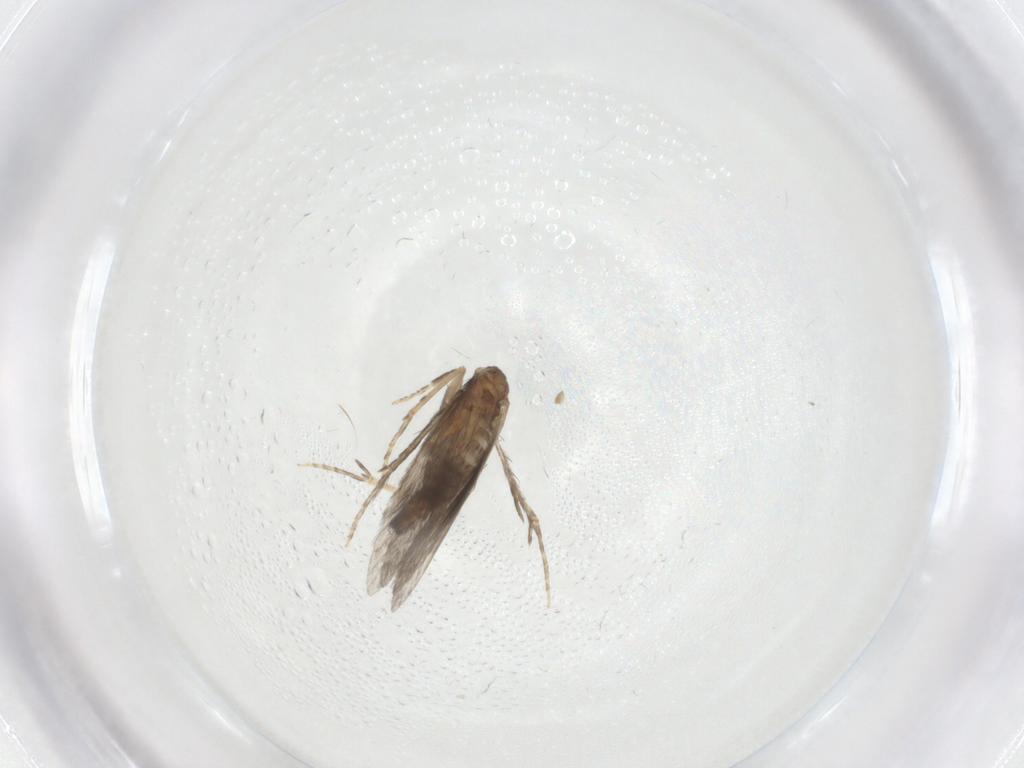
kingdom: Animalia
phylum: Arthropoda
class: Insecta
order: Trichoptera
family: Hydroptilidae
